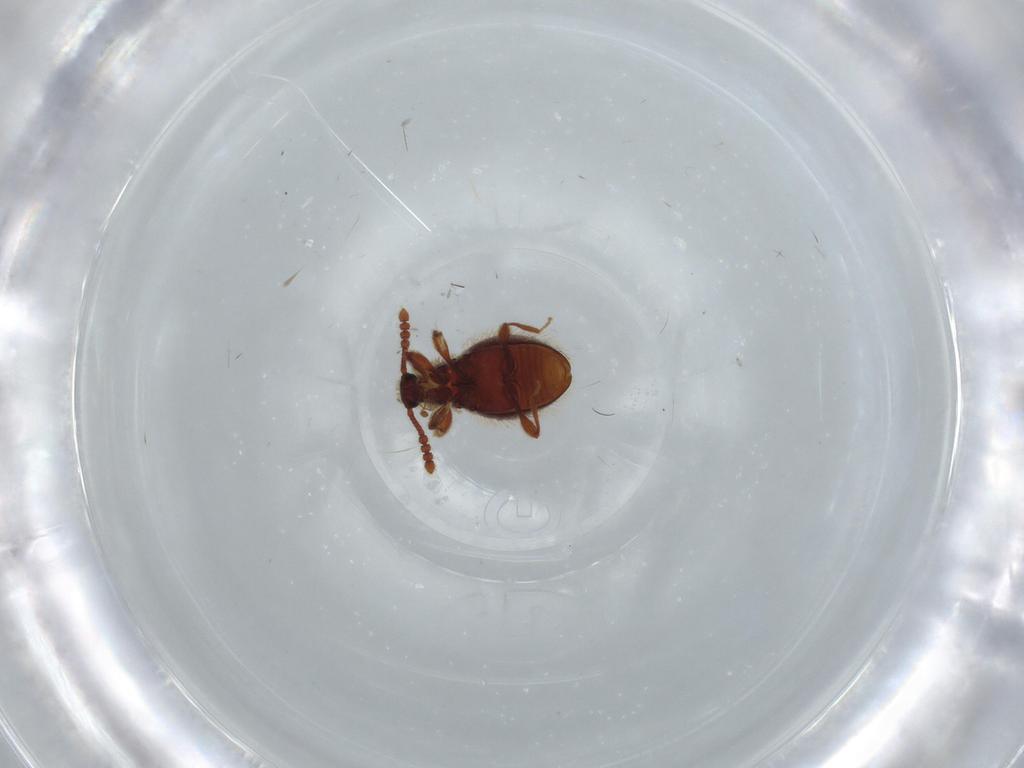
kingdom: Animalia
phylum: Arthropoda
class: Insecta
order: Coleoptera
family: Staphylinidae
